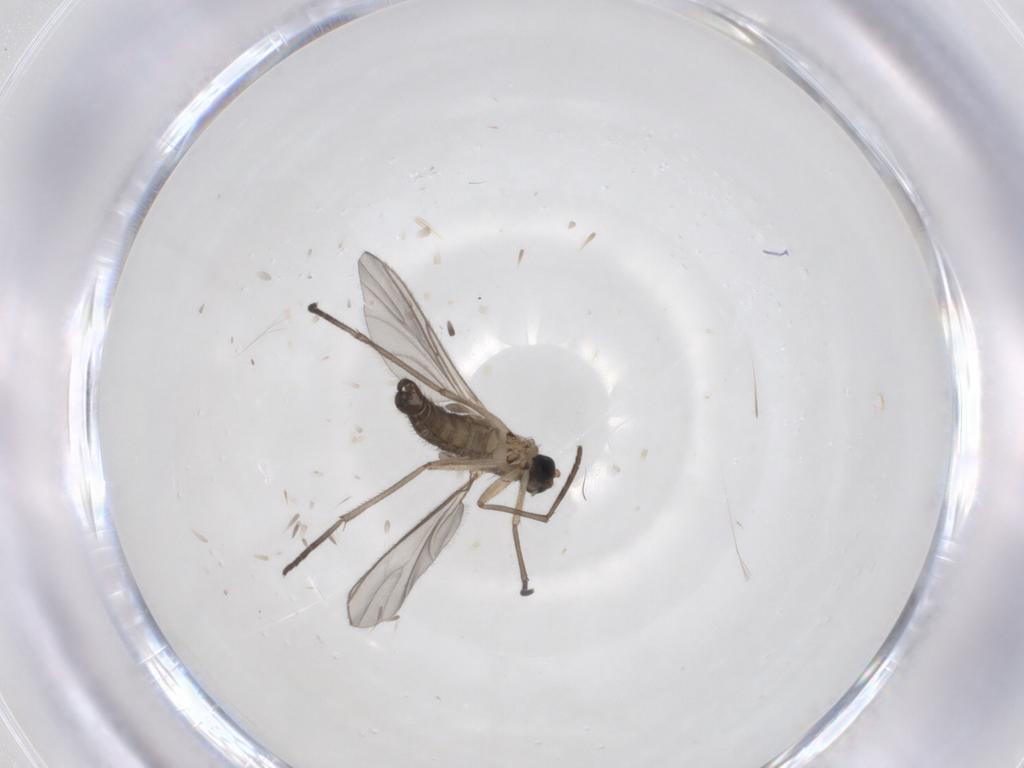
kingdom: Animalia
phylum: Arthropoda
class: Insecta
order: Diptera
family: Sciaridae
